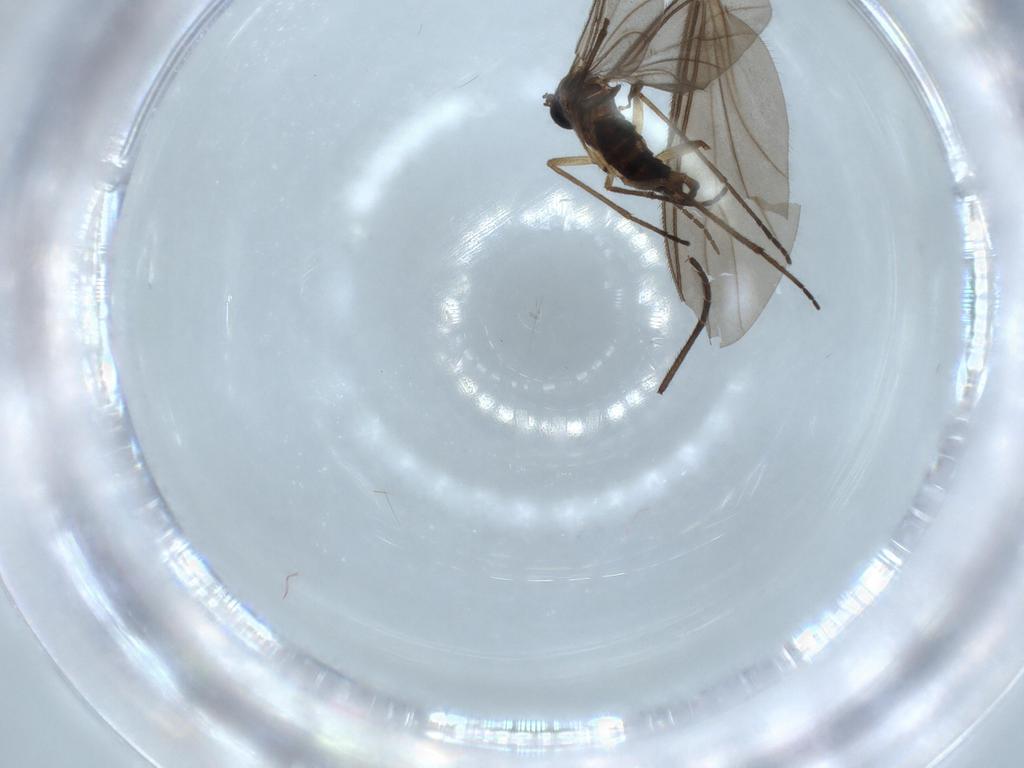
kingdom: Animalia
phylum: Arthropoda
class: Insecta
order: Diptera
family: Sciaridae
